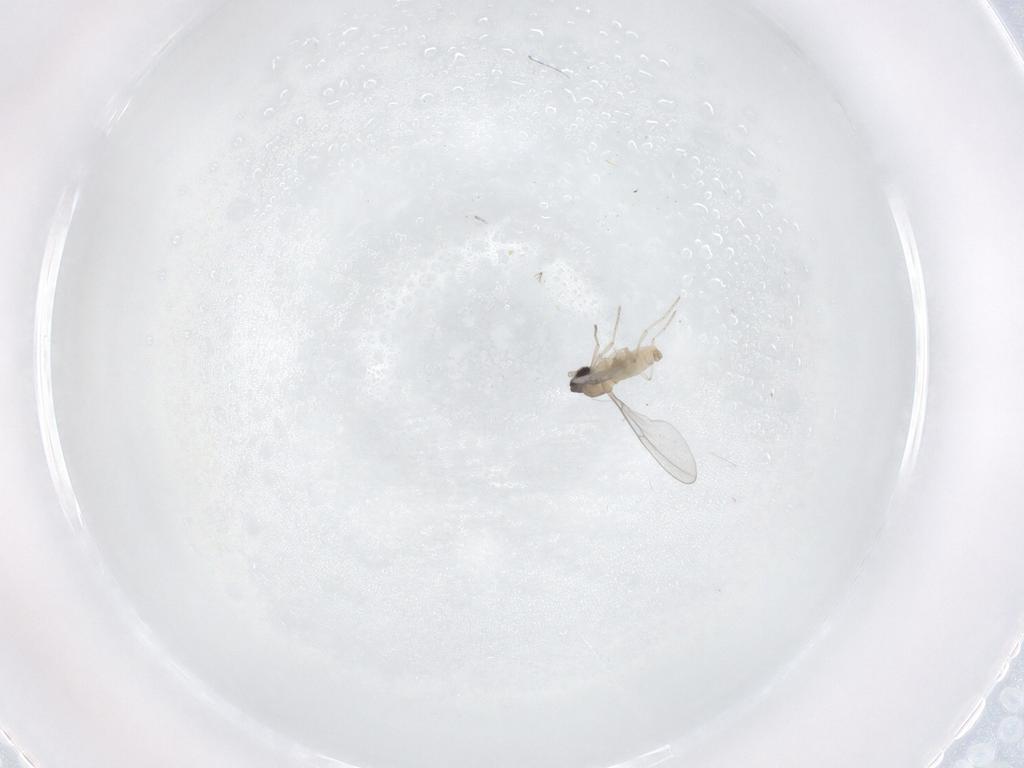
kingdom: Animalia
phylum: Arthropoda
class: Insecta
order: Diptera
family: Cecidomyiidae
